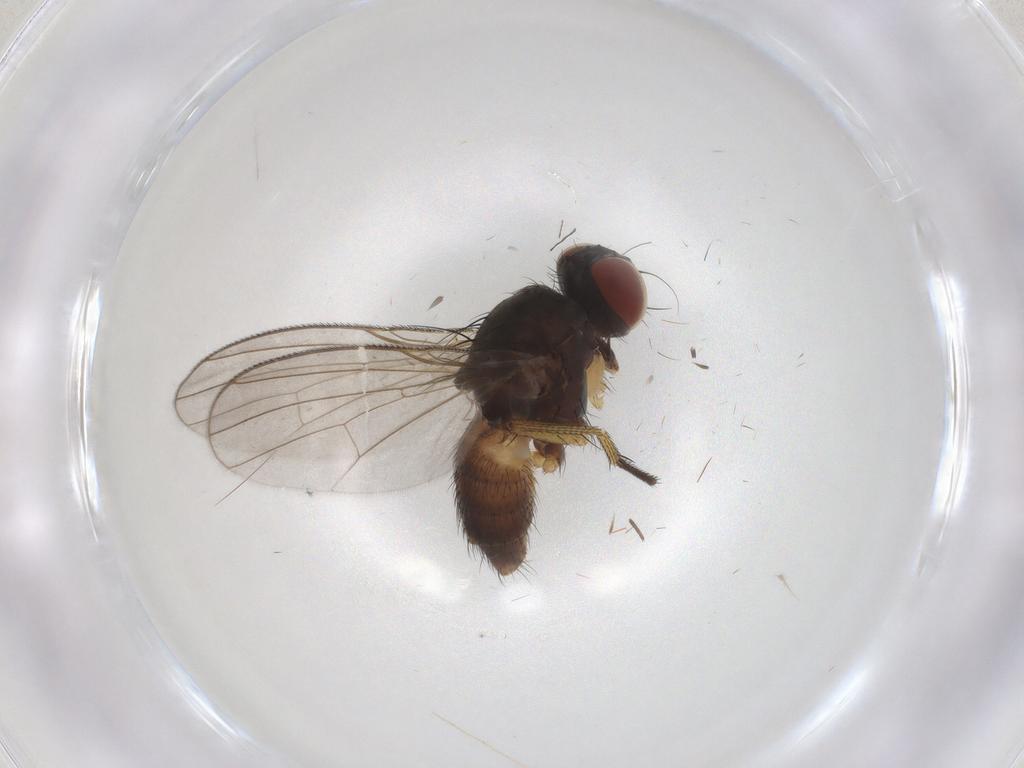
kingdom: Animalia
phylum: Arthropoda
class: Insecta
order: Diptera
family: Muscidae
